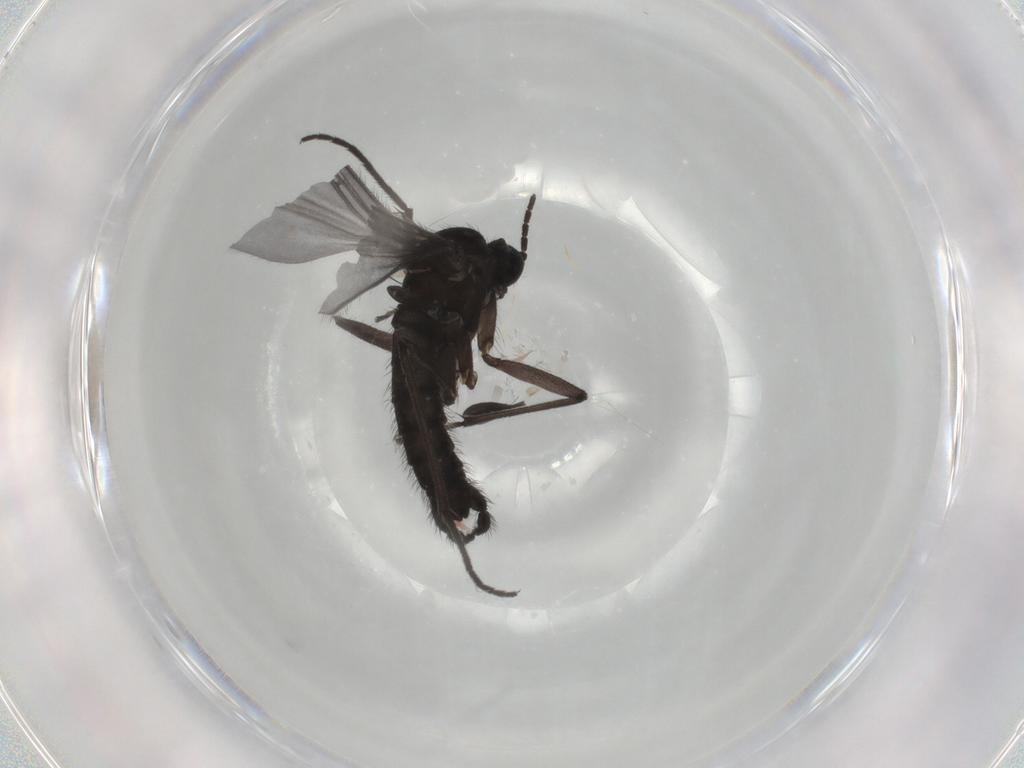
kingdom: Animalia
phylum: Arthropoda
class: Insecta
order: Diptera
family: Sciaridae
